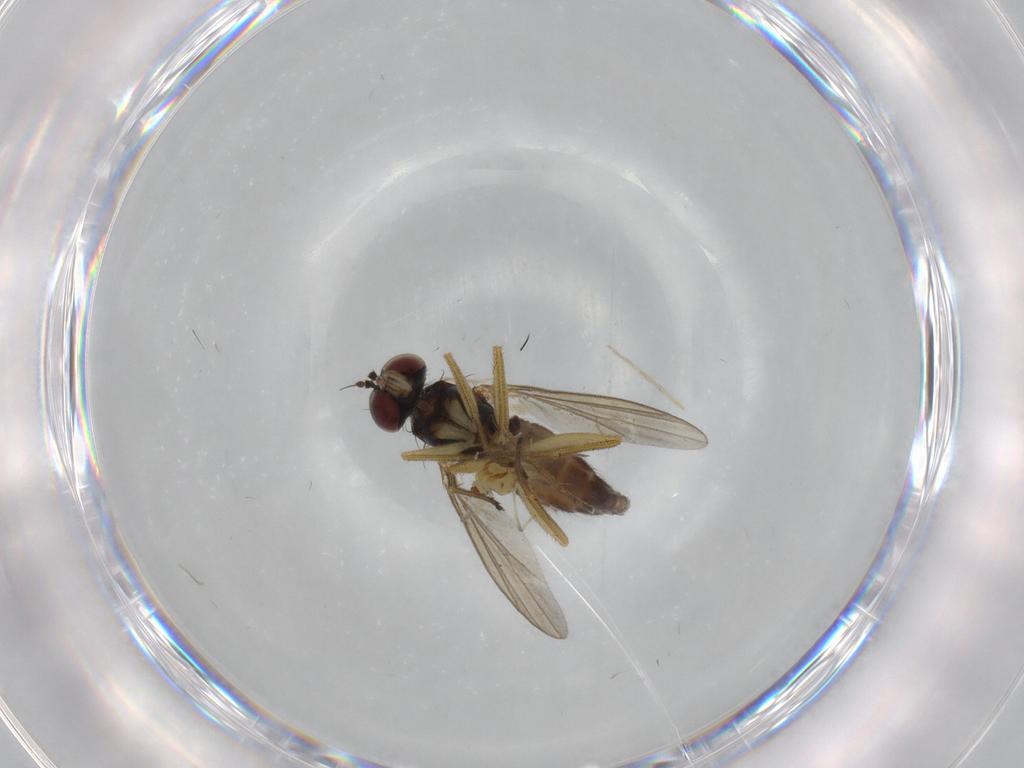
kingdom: Animalia
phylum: Arthropoda
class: Insecta
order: Diptera
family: Dolichopodidae
